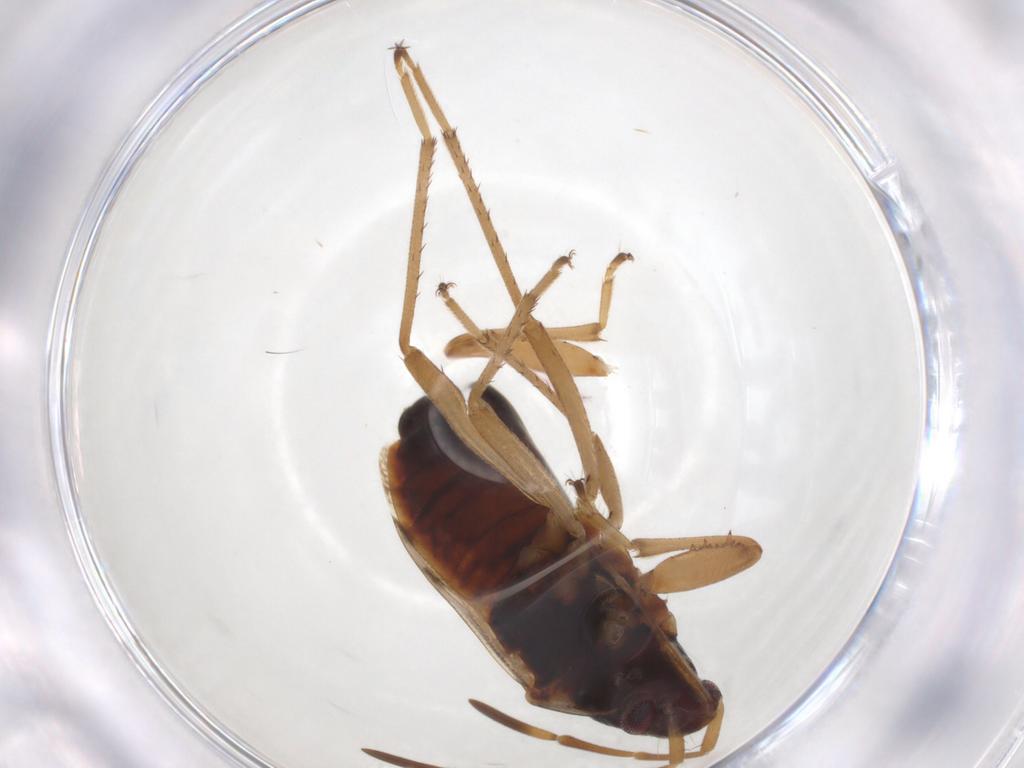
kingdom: Animalia
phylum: Arthropoda
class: Insecta
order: Hemiptera
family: Rhyparochromidae
